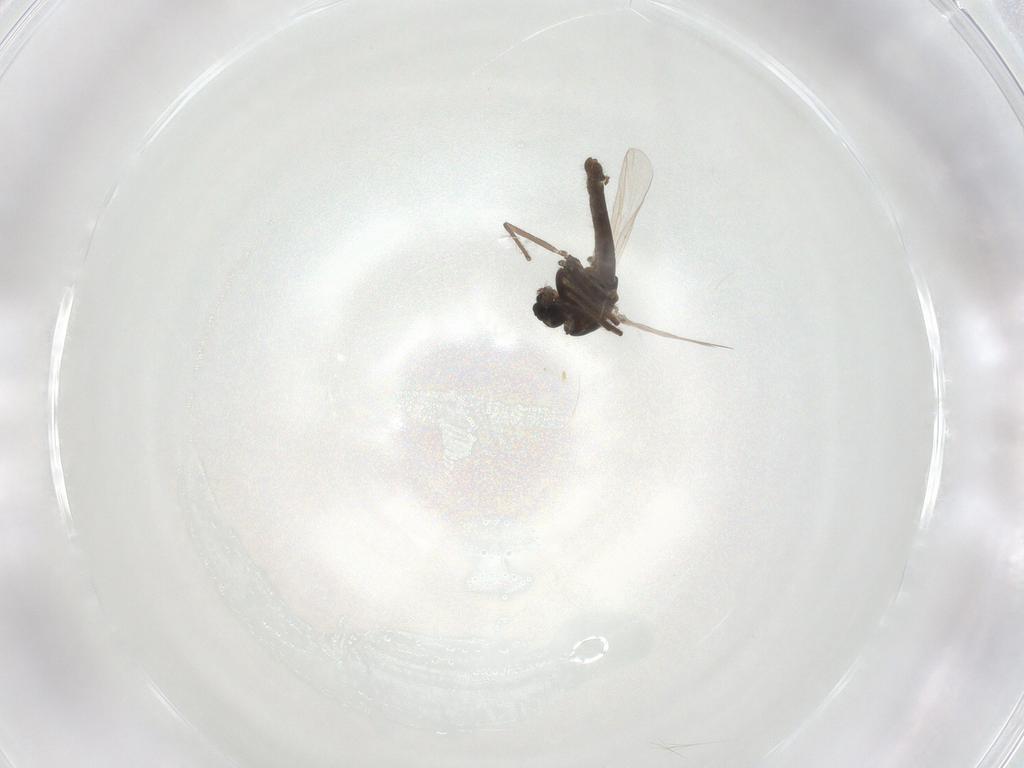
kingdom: Animalia
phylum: Arthropoda
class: Insecta
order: Diptera
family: Chironomidae
